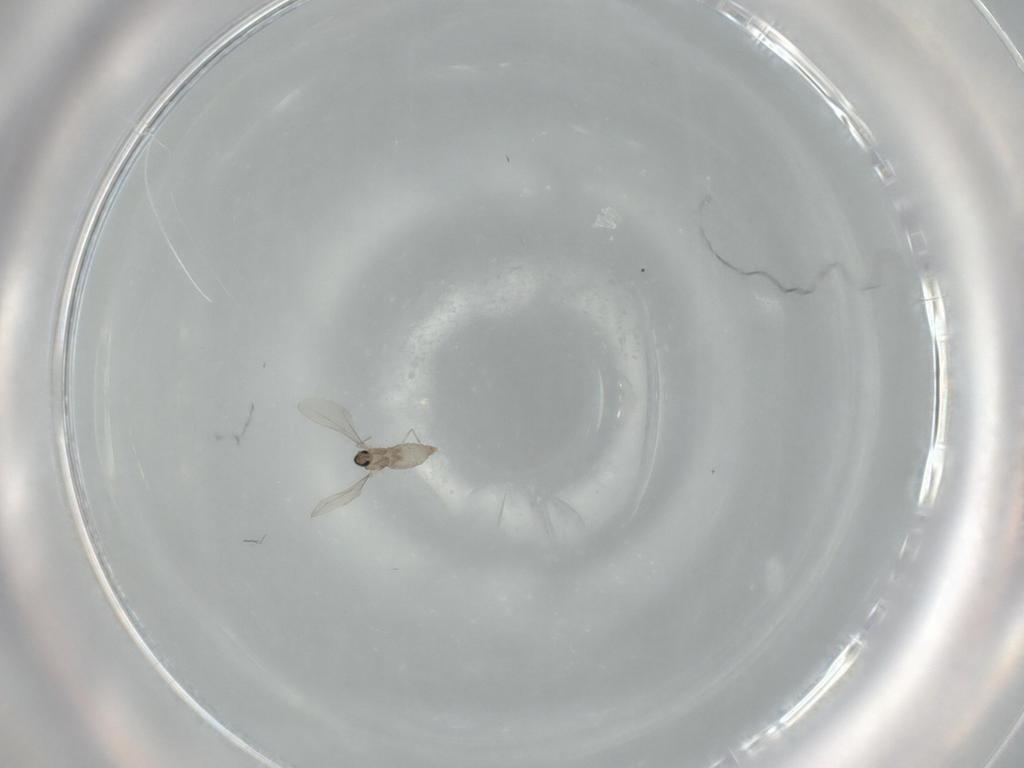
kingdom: Animalia
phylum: Arthropoda
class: Insecta
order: Diptera
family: Cecidomyiidae
